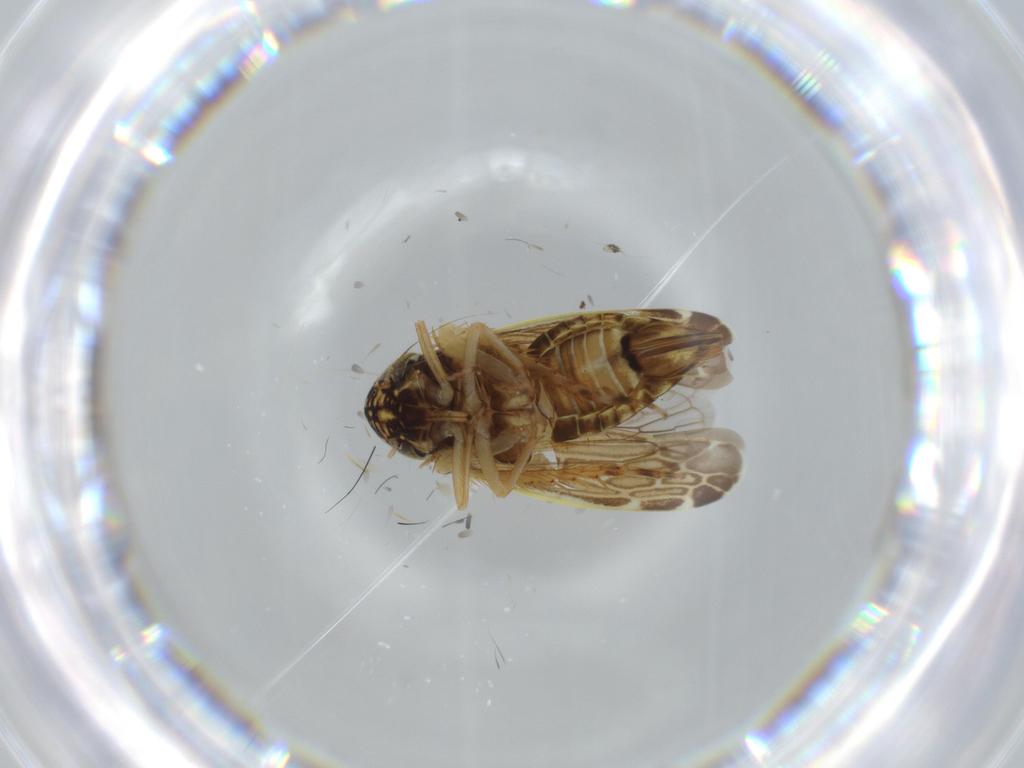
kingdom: Animalia
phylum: Arthropoda
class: Insecta
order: Hemiptera
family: Cicadellidae
